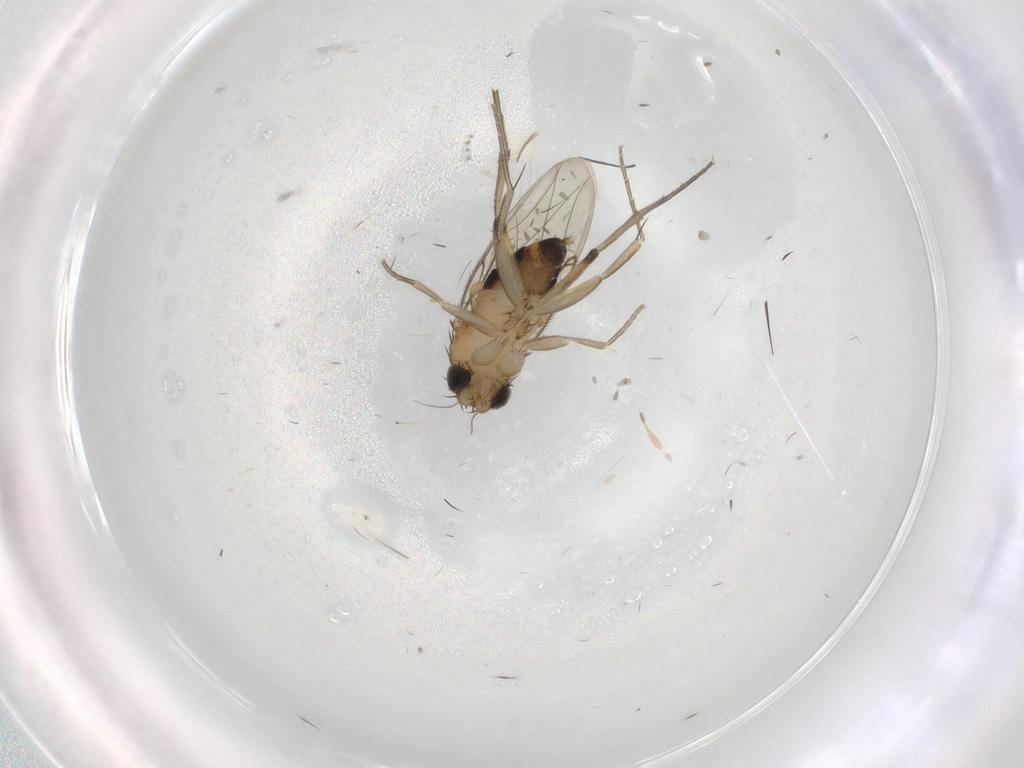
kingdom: Animalia
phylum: Arthropoda
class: Insecta
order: Diptera
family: Phoridae
